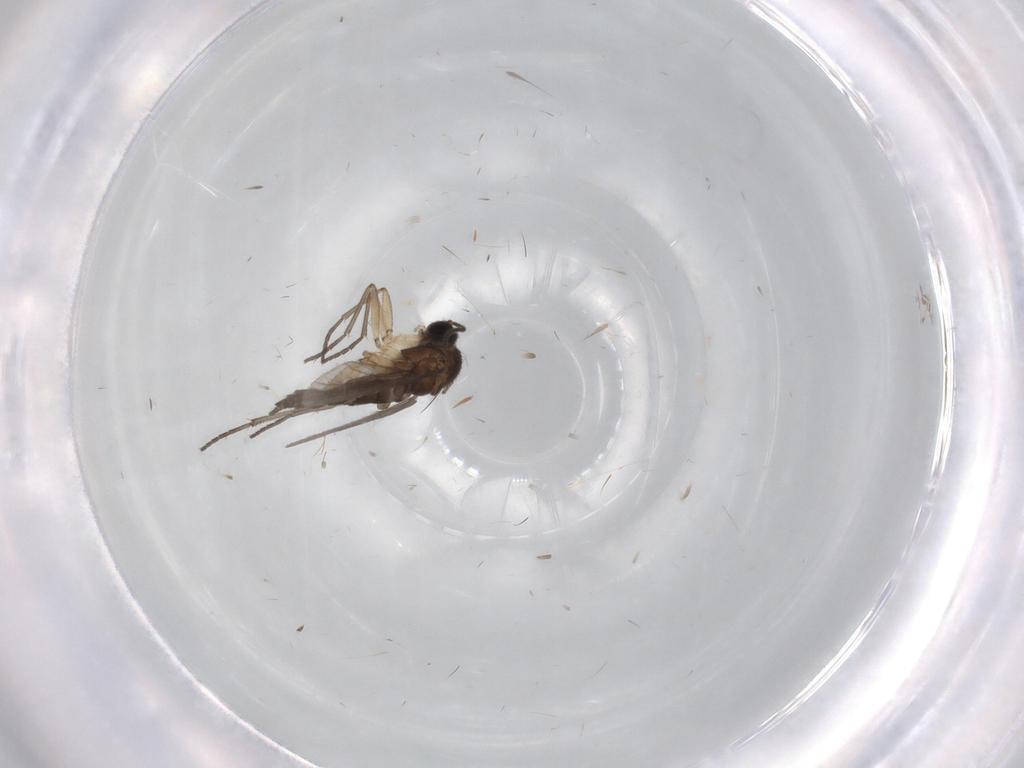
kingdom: Animalia
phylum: Arthropoda
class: Insecta
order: Diptera
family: Sciaridae
